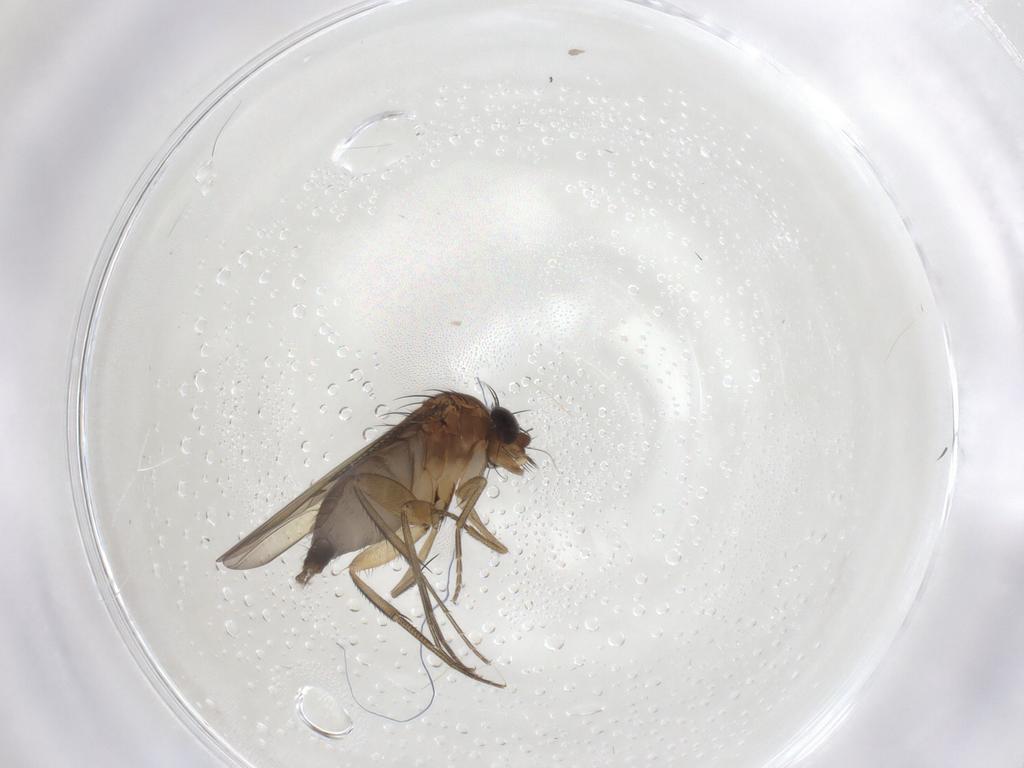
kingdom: Animalia
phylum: Arthropoda
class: Insecta
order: Diptera
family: Phoridae
